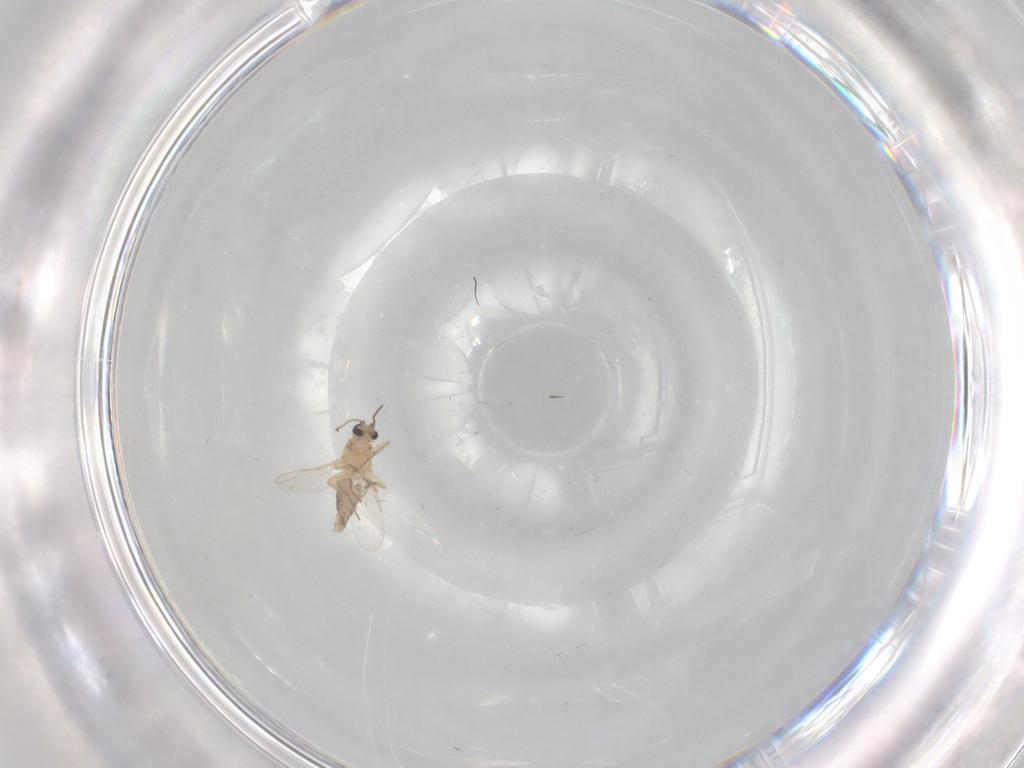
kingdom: Animalia
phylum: Arthropoda
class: Insecta
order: Diptera
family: Ceratopogonidae
